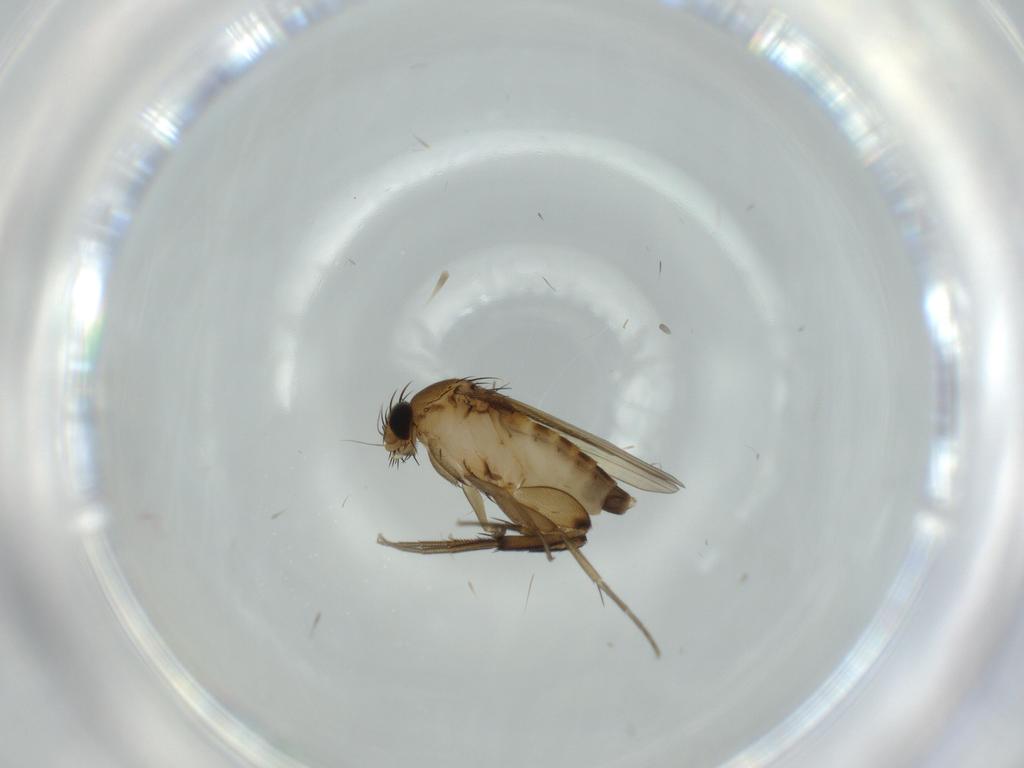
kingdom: Animalia
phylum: Arthropoda
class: Insecta
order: Diptera
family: Phoridae
